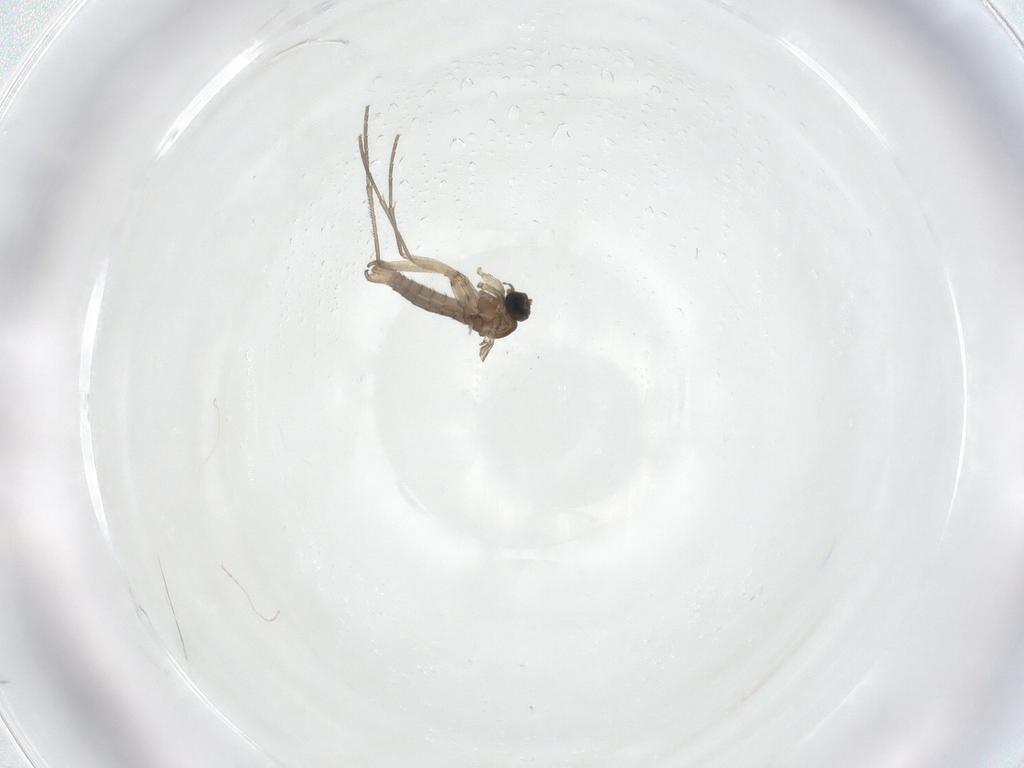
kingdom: Animalia
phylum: Arthropoda
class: Insecta
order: Diptera
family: Sciaridae
